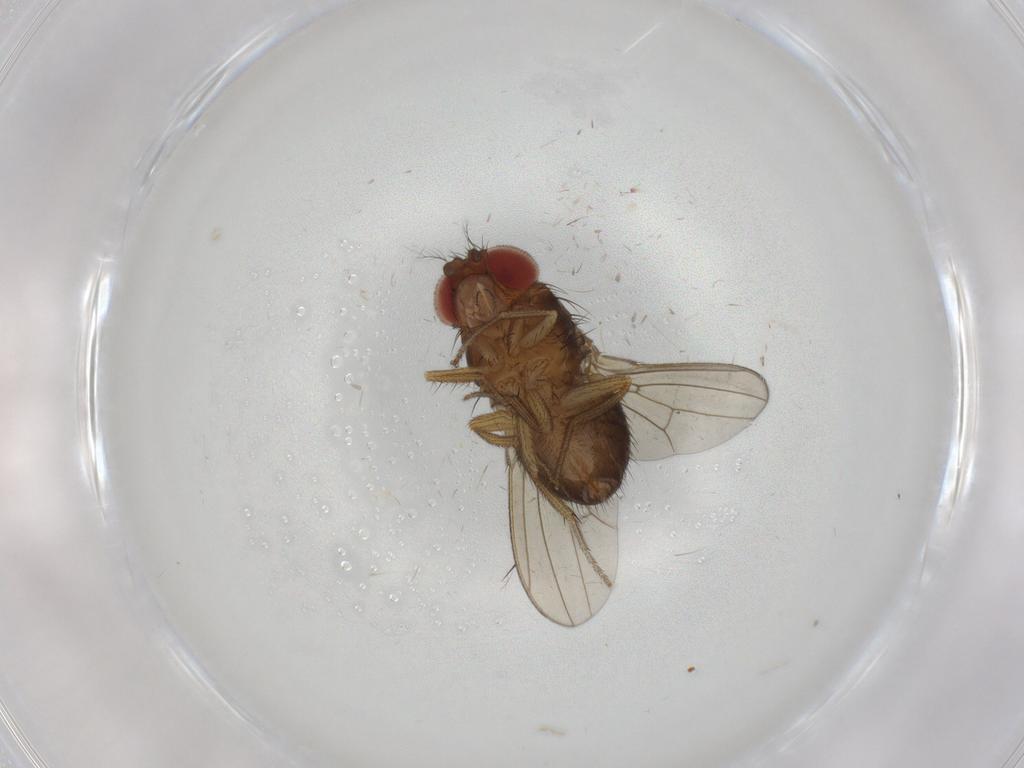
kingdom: Animalia
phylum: Arthropoda
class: Insecta
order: Diptera
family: Drosophilidae
